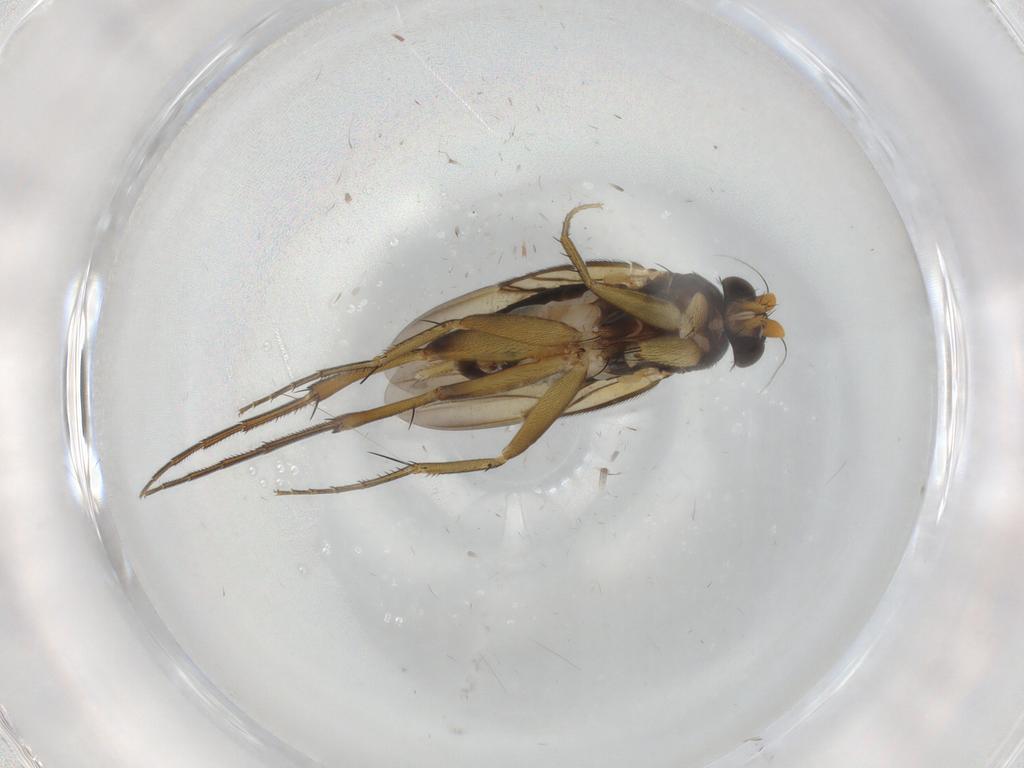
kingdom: Animalia
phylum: Arthropoda
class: Insecta
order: Diptera
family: Phoridae
